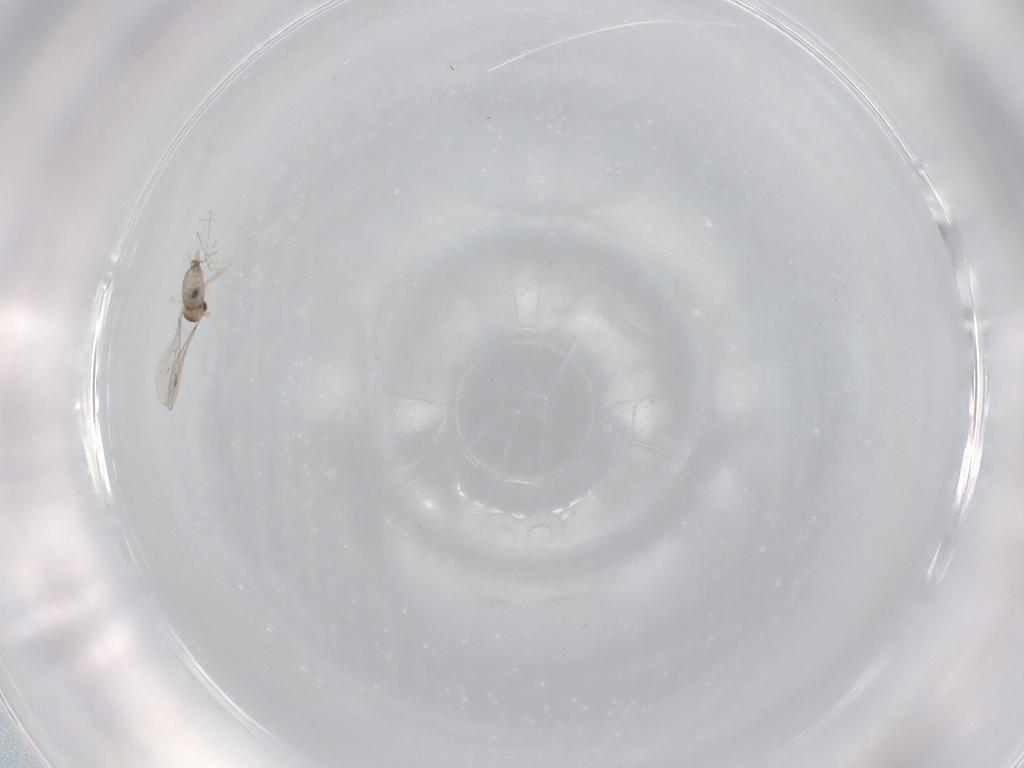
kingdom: Animalia
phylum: Arthropoda
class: Insecta
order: Diptera
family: Cecidomyiidae
